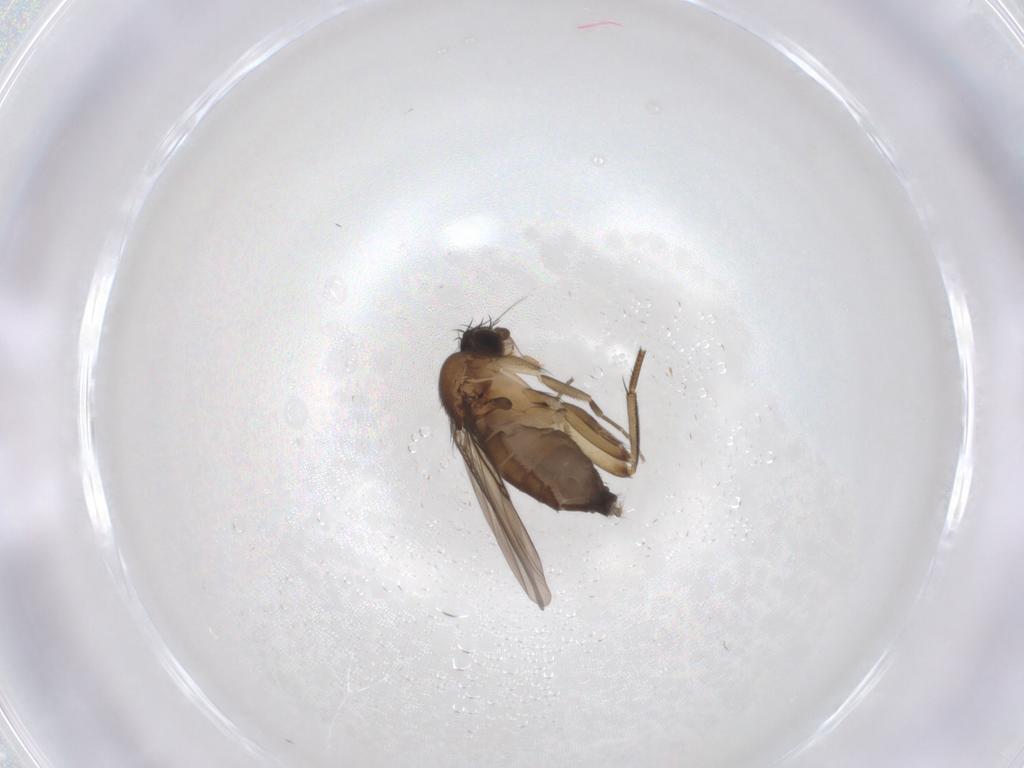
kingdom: Animalia
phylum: Arthropoda
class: Insecta
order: Diptera
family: Phoridae
